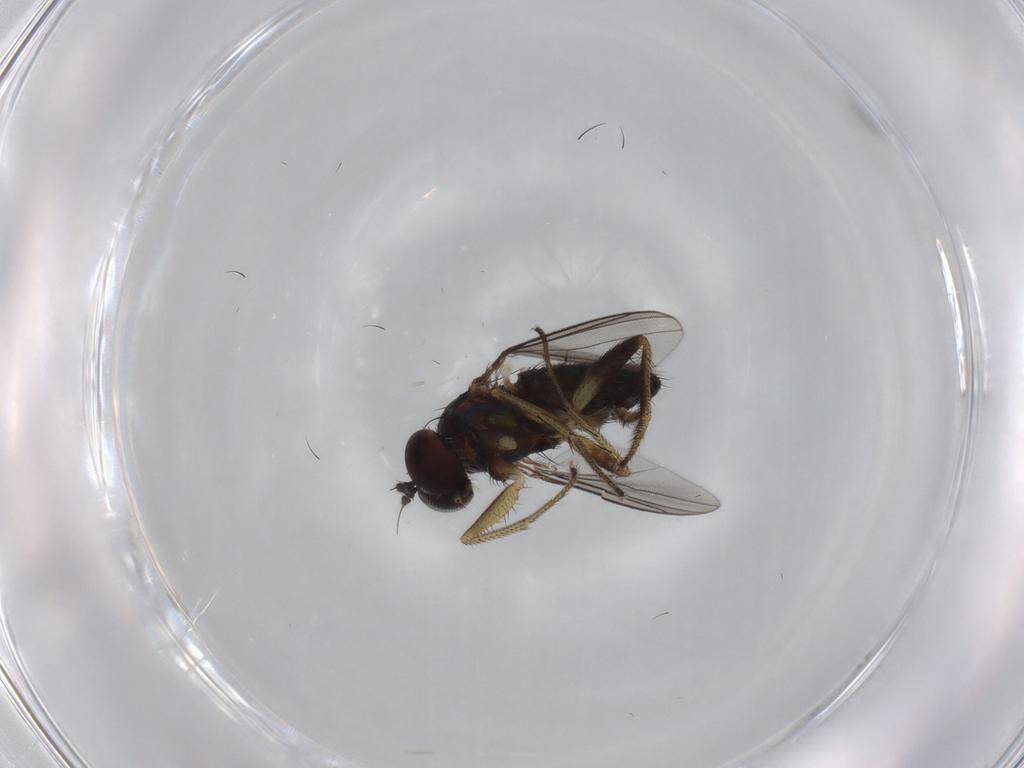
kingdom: Animalia
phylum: Arthropoda
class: Insecta
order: Diptera
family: Dolichopodidae
